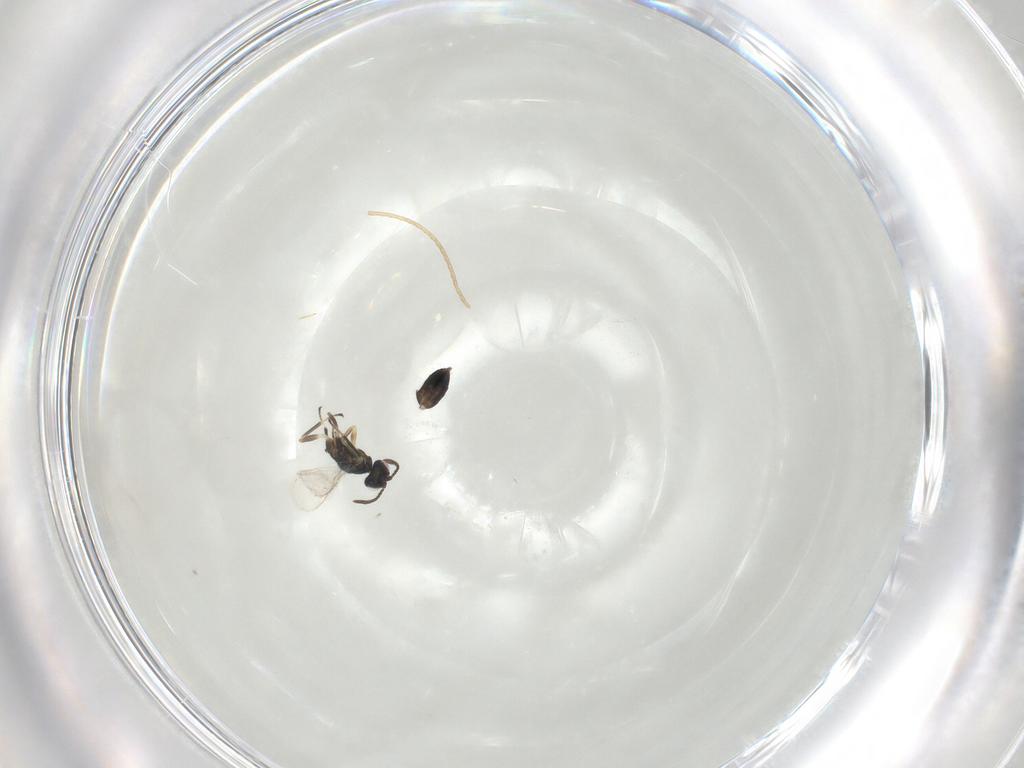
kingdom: Animalia
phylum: Arthropoda
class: Insecta
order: Hymenoptera
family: Eupelmidae
